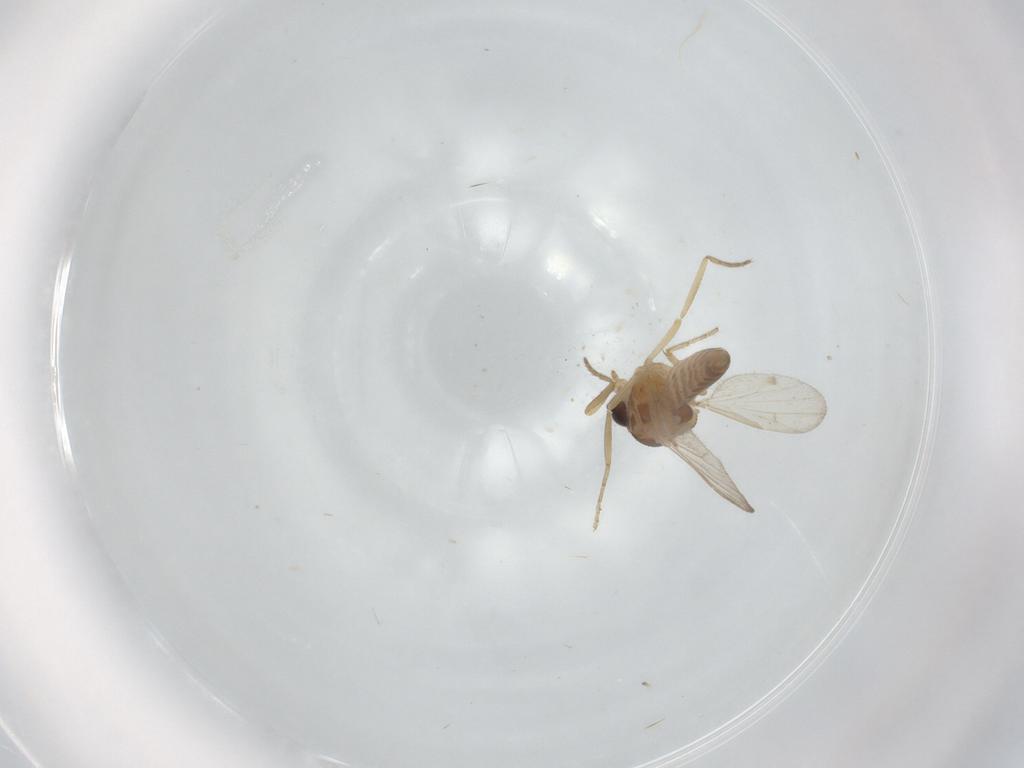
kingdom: Animalia
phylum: Arthropoda
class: Insecta
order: Diptera
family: Ceratopogonidae
